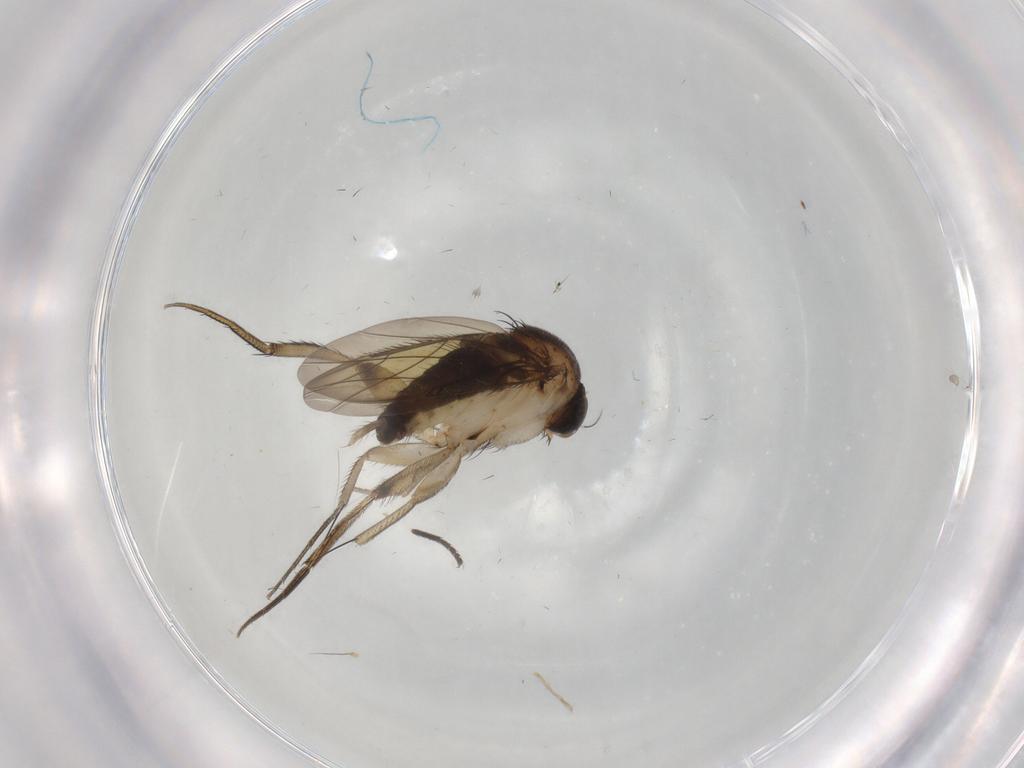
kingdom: Animalia
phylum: Arthropoda
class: Insecta
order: Diptera
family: Phoridae
